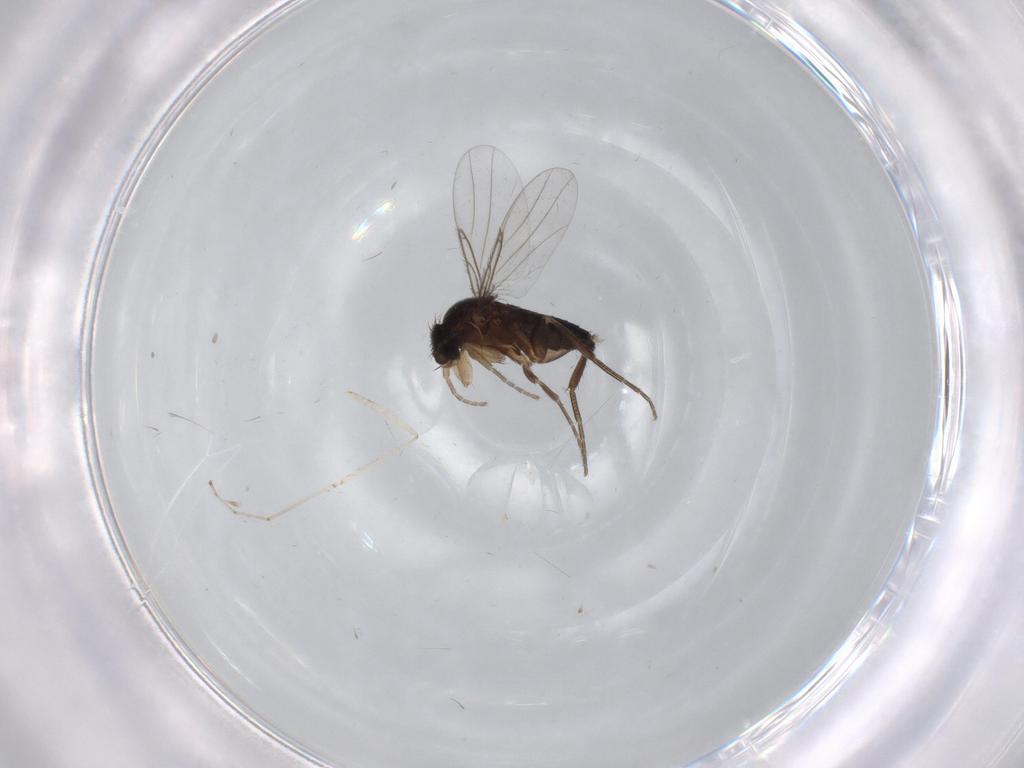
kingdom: Animalia
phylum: Arthropoda
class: Insecta
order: Diptera
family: Phoridae
